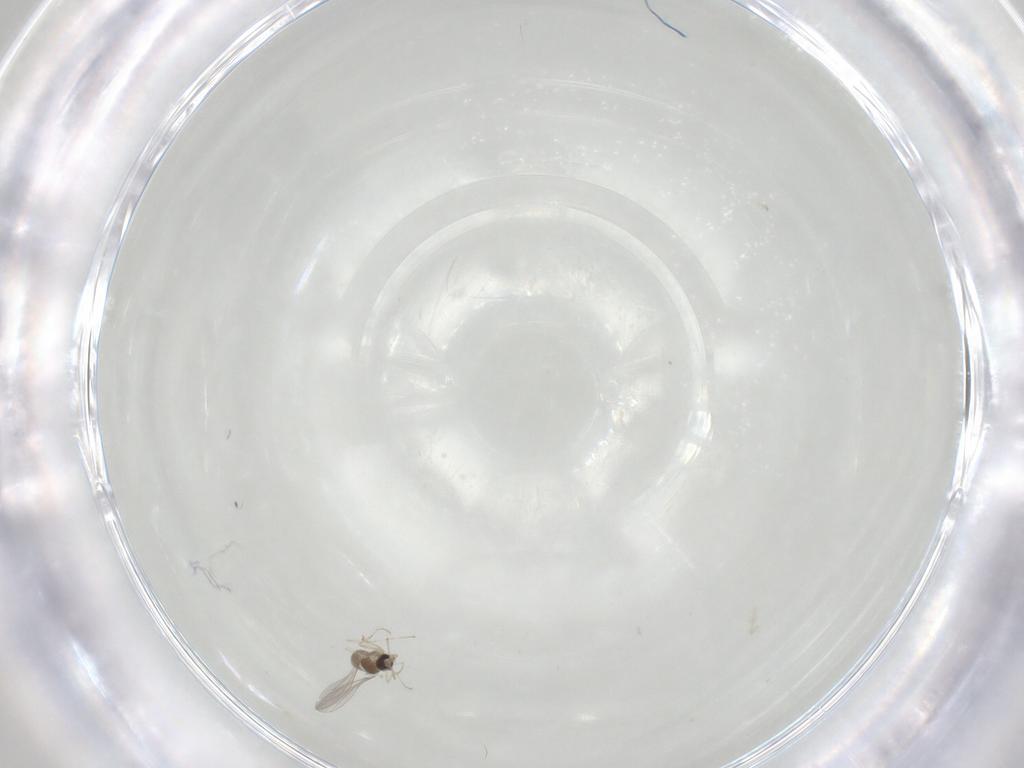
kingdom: Animalia
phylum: Arthropoda
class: Insecta
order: Diptera
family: Cecidomyiidae
